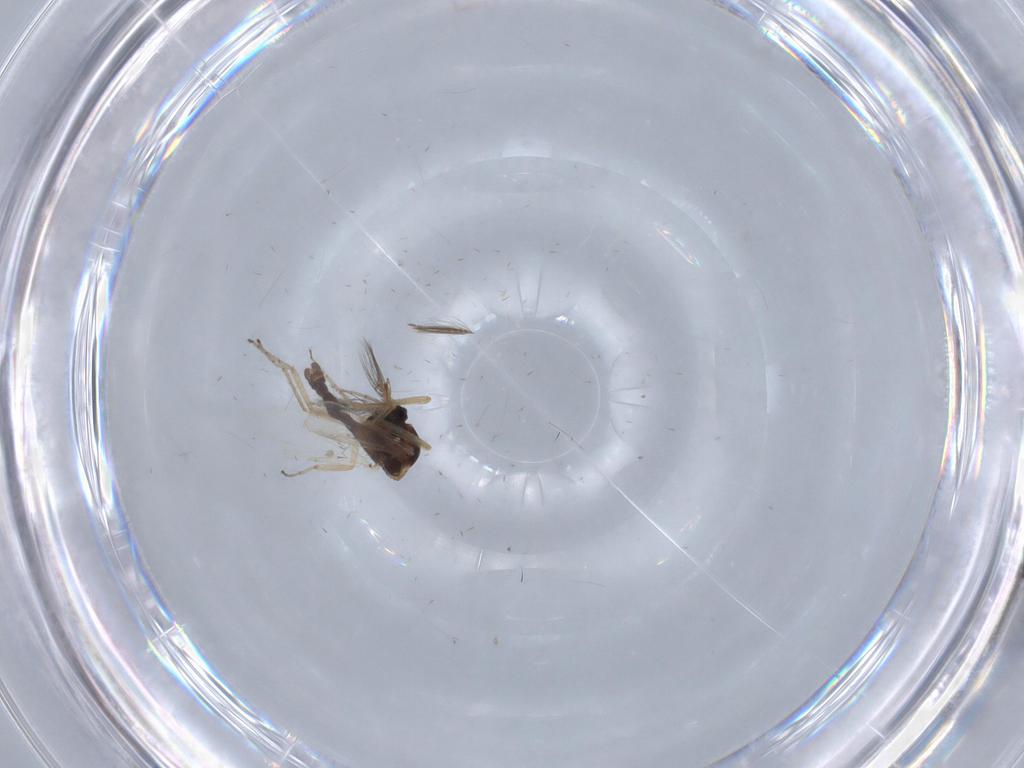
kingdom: Animalia
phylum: Arthropoda
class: Insecta
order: Diptera
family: Ceratopogonidae
